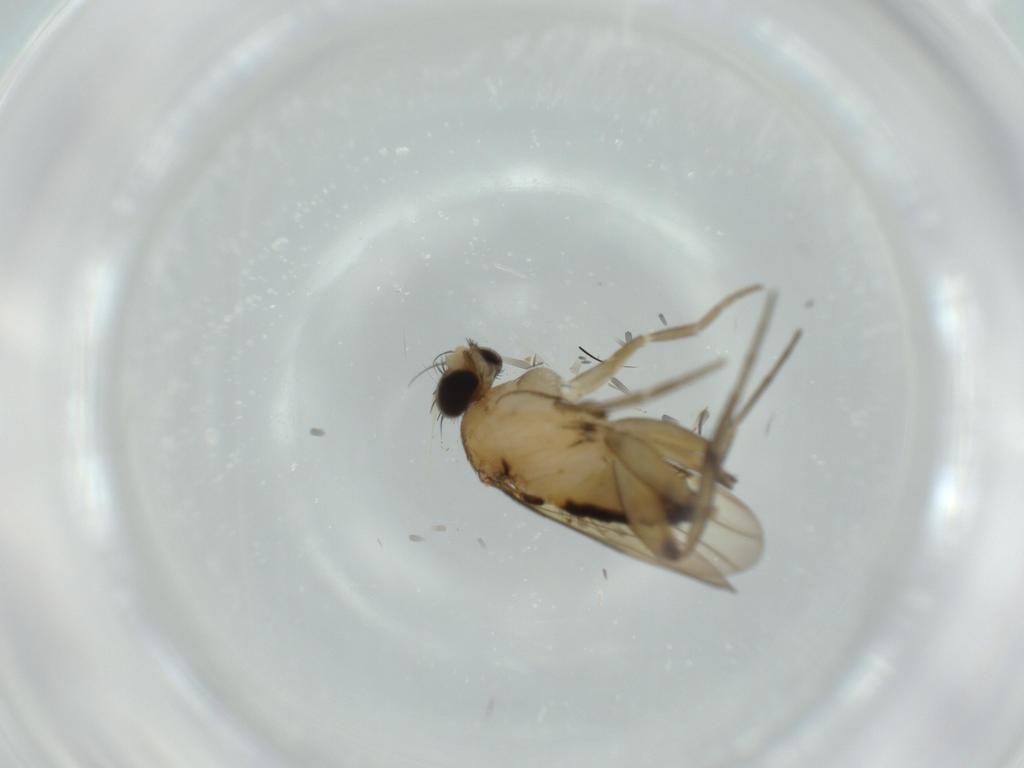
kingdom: Animalia
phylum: Arthropoda
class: Insecta
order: Diptera
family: Phoridae
